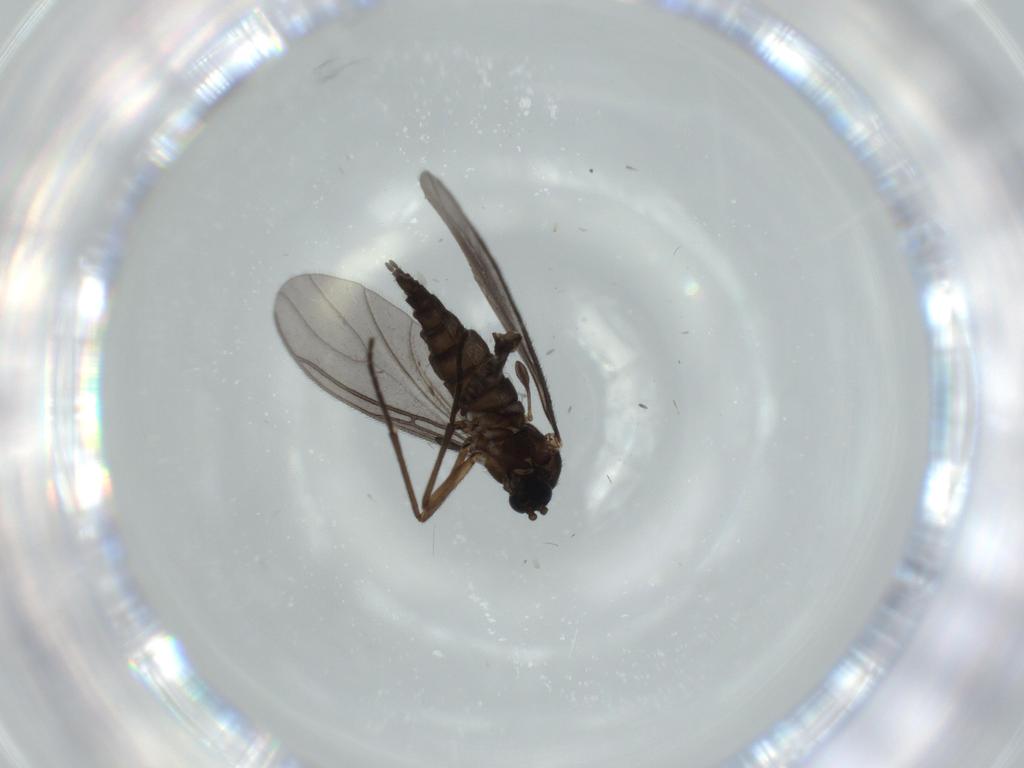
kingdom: Animalia
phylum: Arthropoda
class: Insecta
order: Diptera
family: Sciaridae
